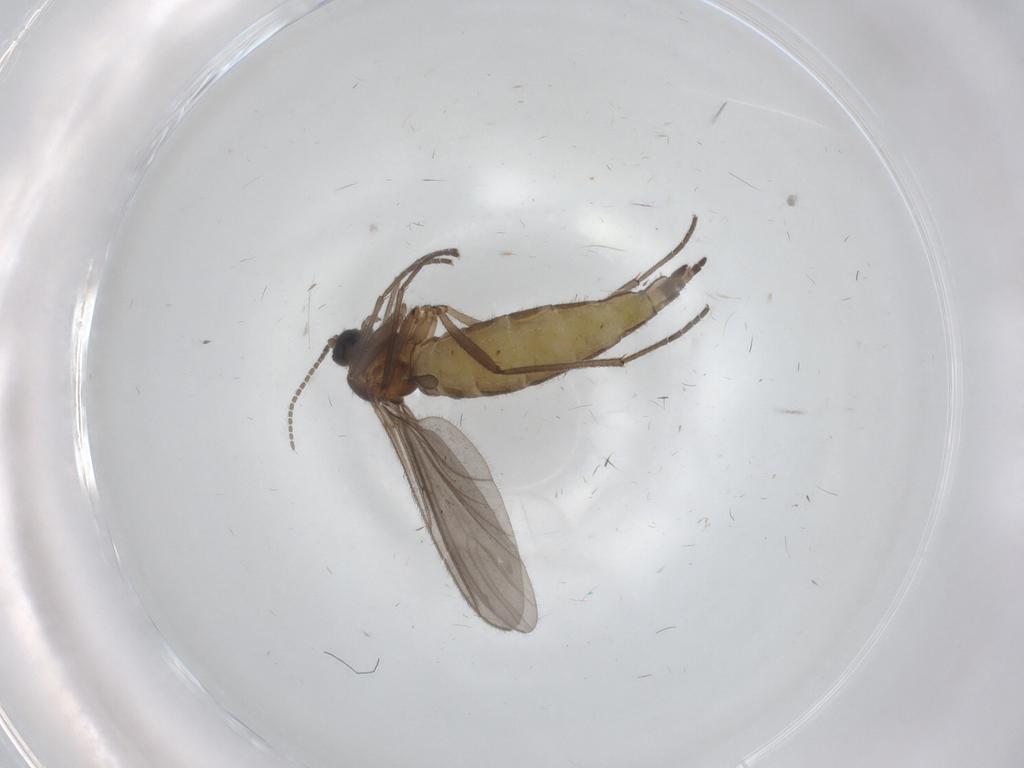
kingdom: Animalia
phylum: Arthropoda
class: Insecta
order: Diptera
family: Sciaridae
